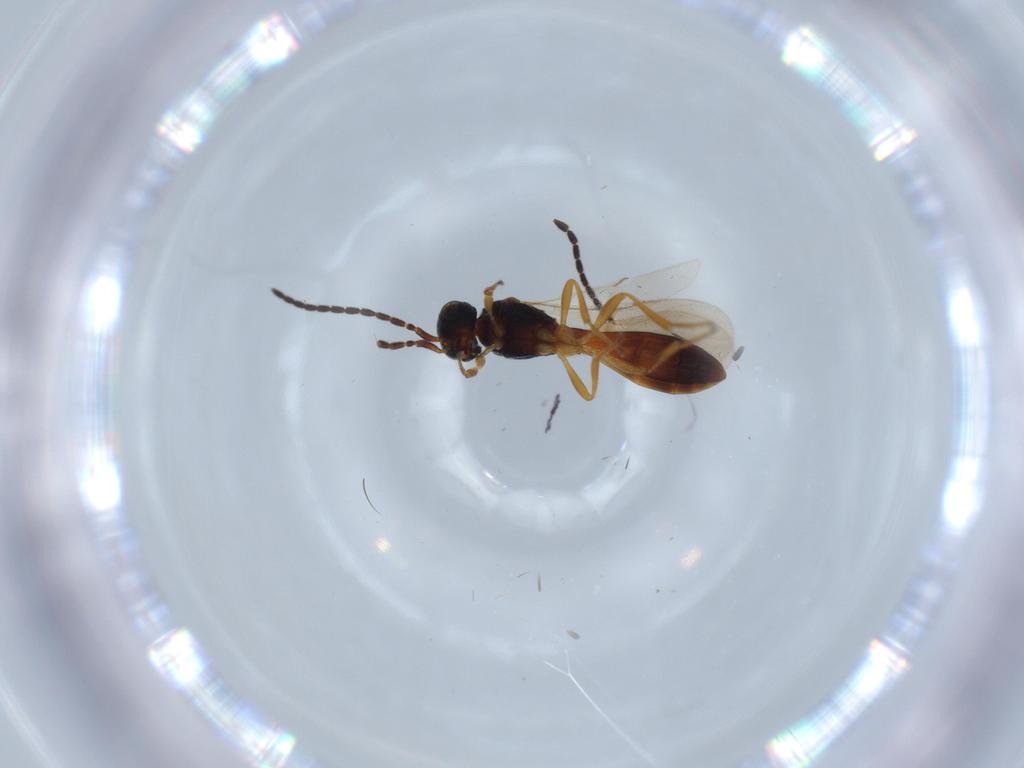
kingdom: Animalia
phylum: Arthropoda
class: Insecta
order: Hymenoptera
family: Scelionidae
